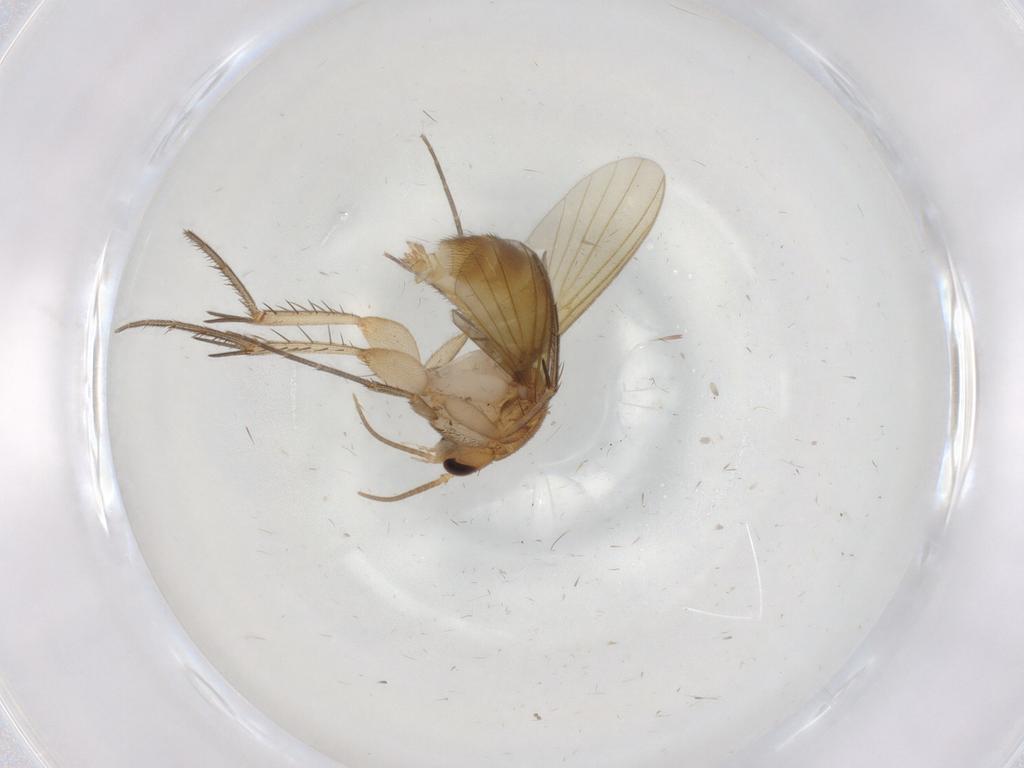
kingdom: Animalia
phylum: Arthropoda
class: Insecta
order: Diptera
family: Mycetophilidae
